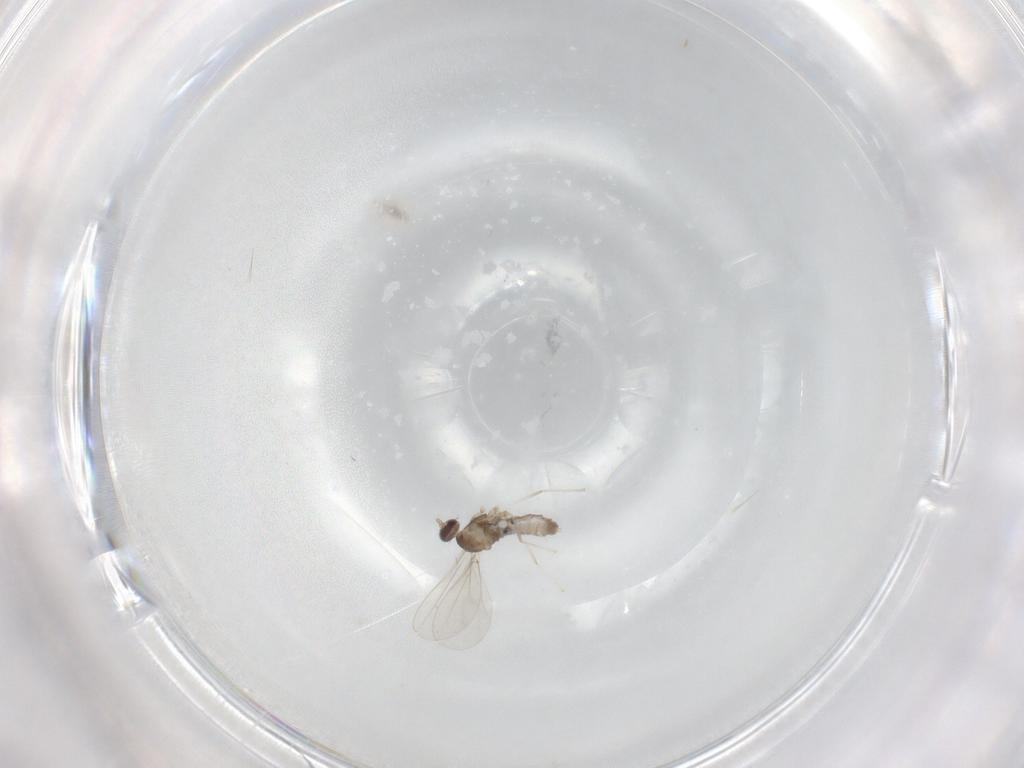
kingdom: Animalia
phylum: Arthropoda
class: Insecta
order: Diptera
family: Cecidomyiidae
